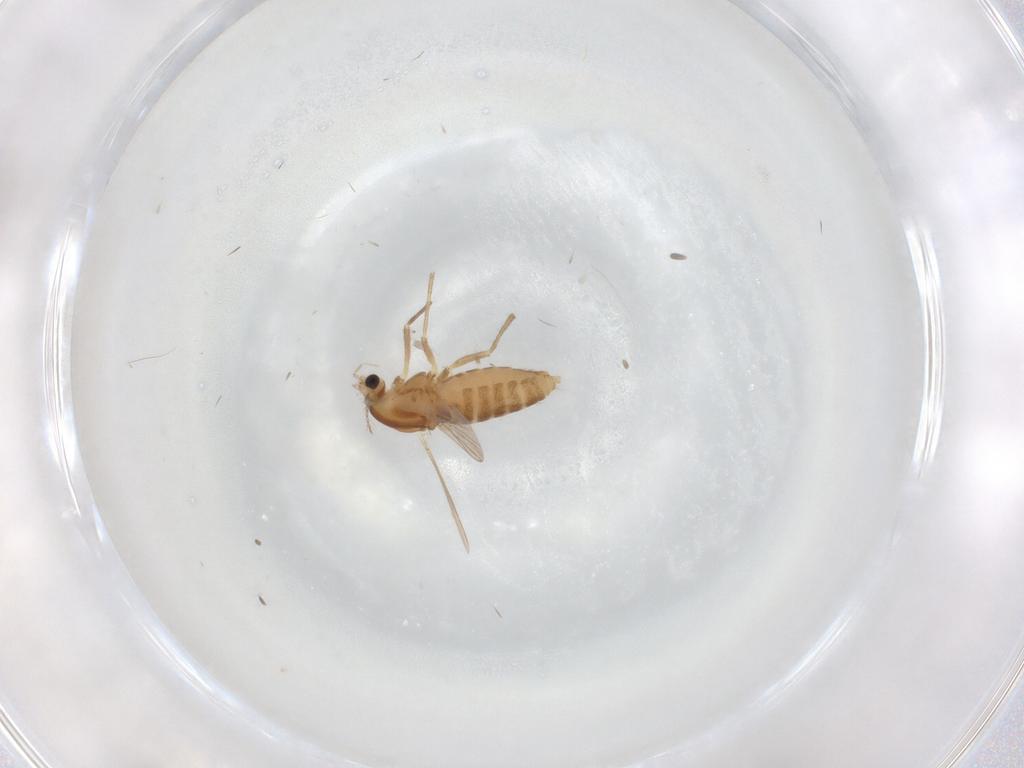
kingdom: Animalia
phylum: Arthropoda
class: Insecta
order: Diptera
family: Chironomidae
